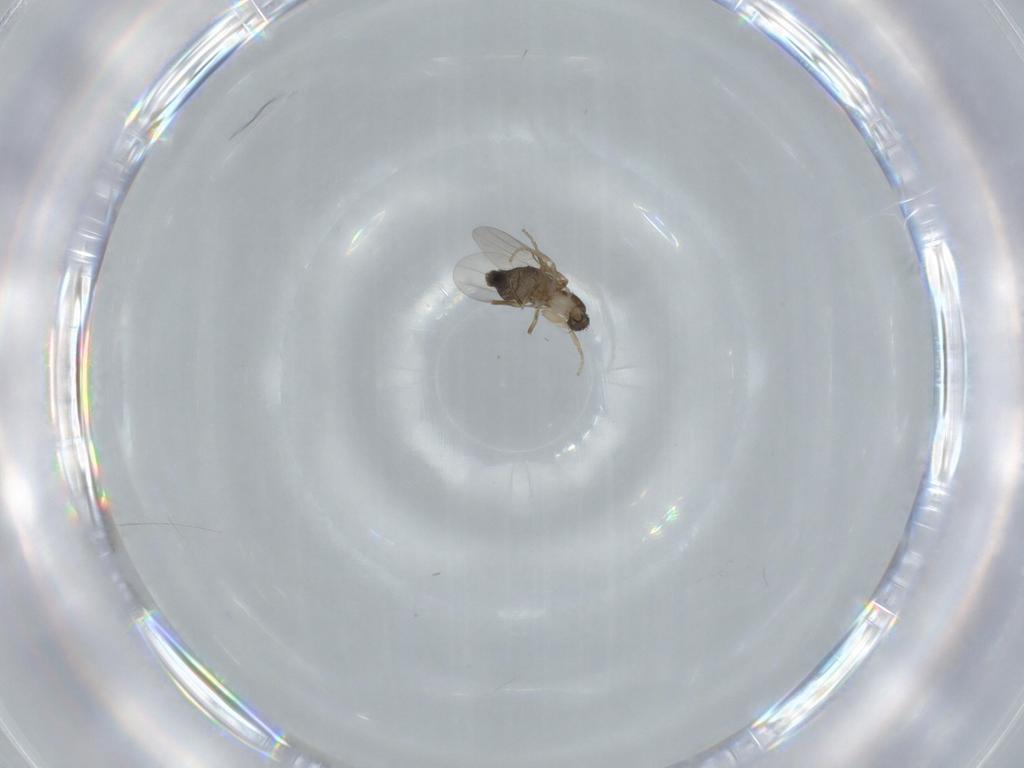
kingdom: Animalia
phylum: Arthropoda
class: Insecta
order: Diptera
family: Phoridae
